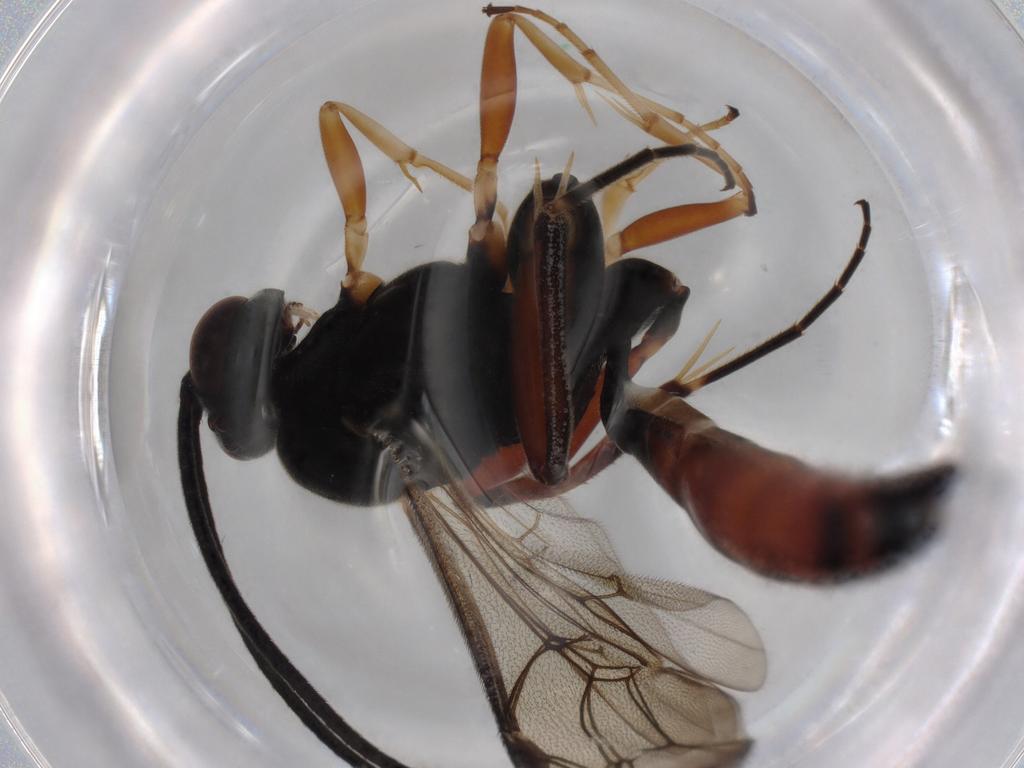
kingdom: Animalia
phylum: Arthropoda
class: Insecta
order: Hymenoptera
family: Ichneumonidae
